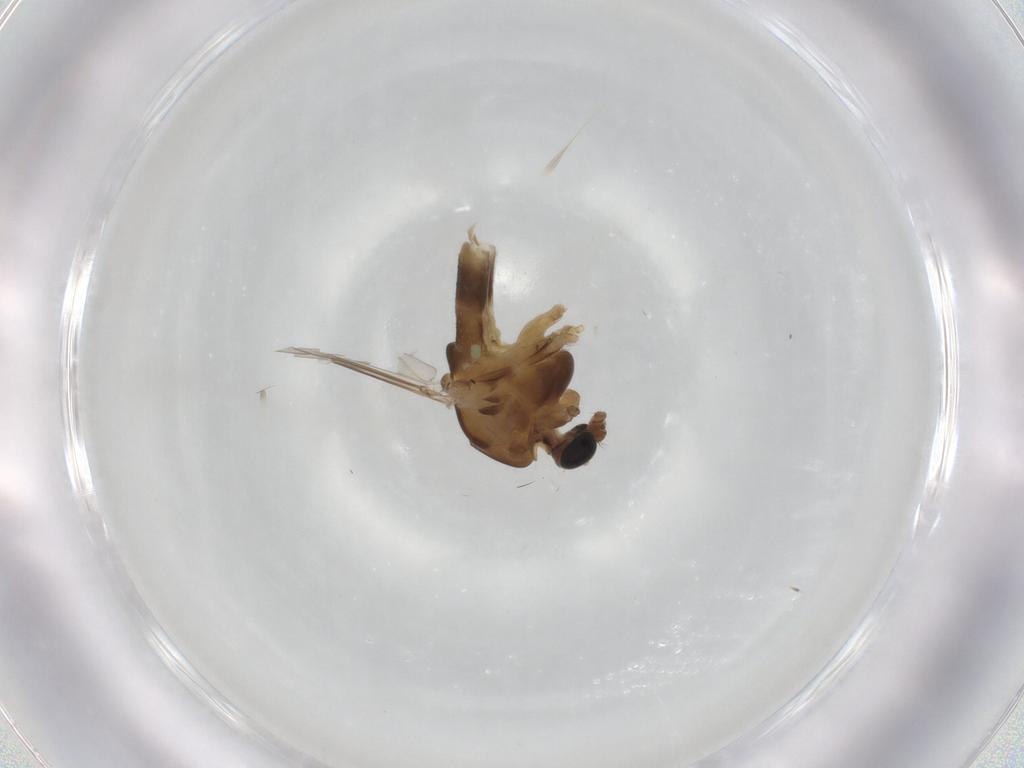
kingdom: Animalia
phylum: Arthropoda
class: Insecta
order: Diptera
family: Chironomidae
